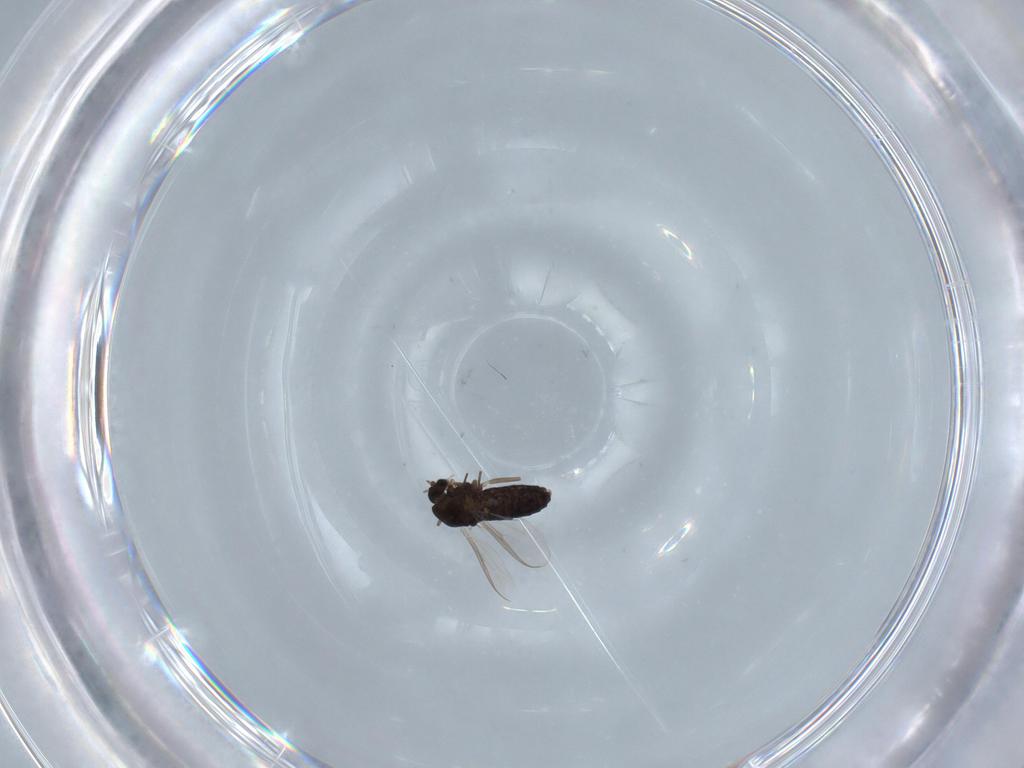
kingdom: Animalia
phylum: Arthropoda
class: Insecta
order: Diptera
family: Chironomidae
